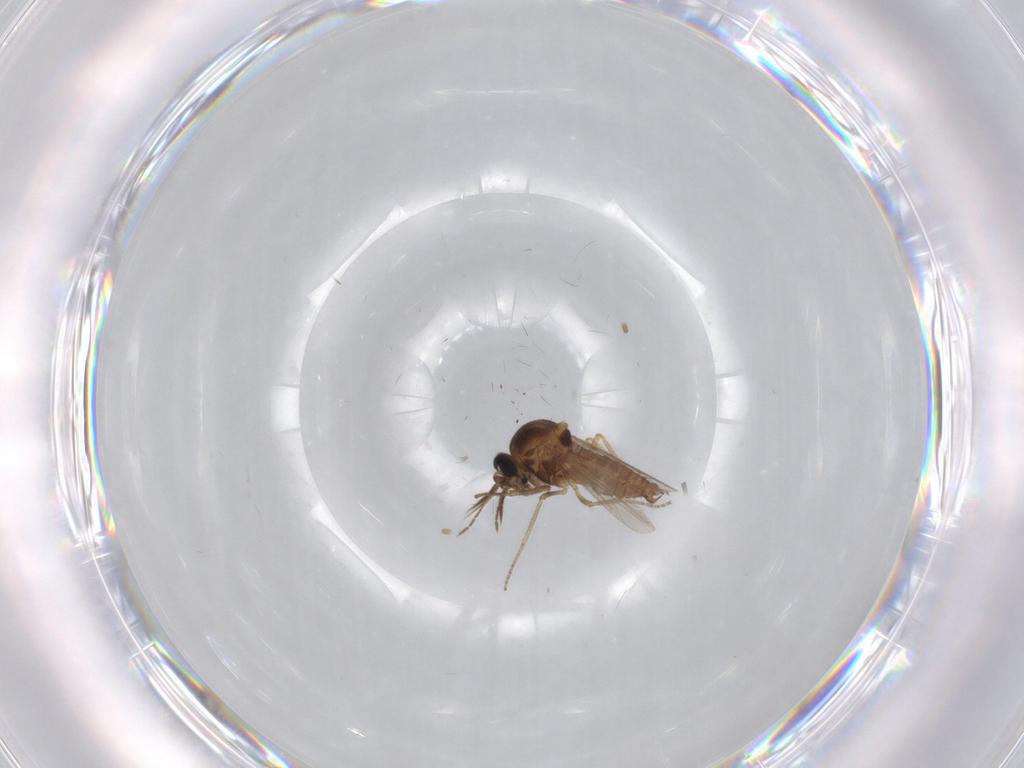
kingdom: Animalia
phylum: Arthropoda
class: Insecta
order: Diptera
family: Ceratopogonidae
